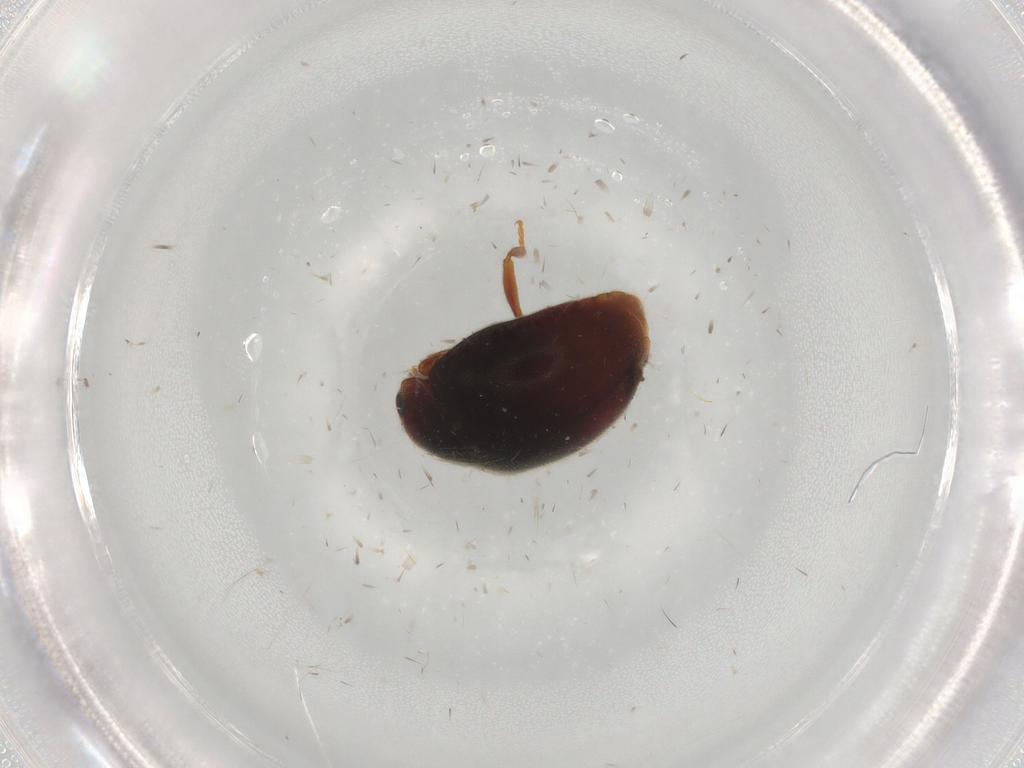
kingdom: Animalia
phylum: Arthropoda
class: Insecta
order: Coleoptera
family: Coccinellidae
